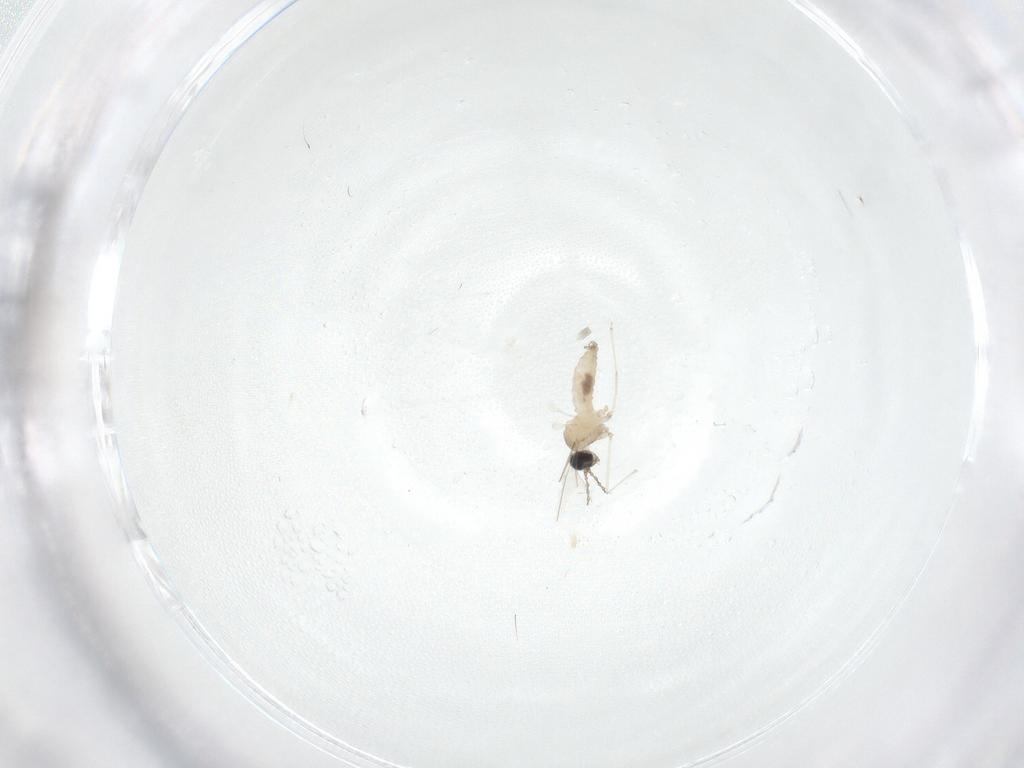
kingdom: Animalia
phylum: Arthropoda
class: Insecta
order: Diptera
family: Cecidomyiidae
